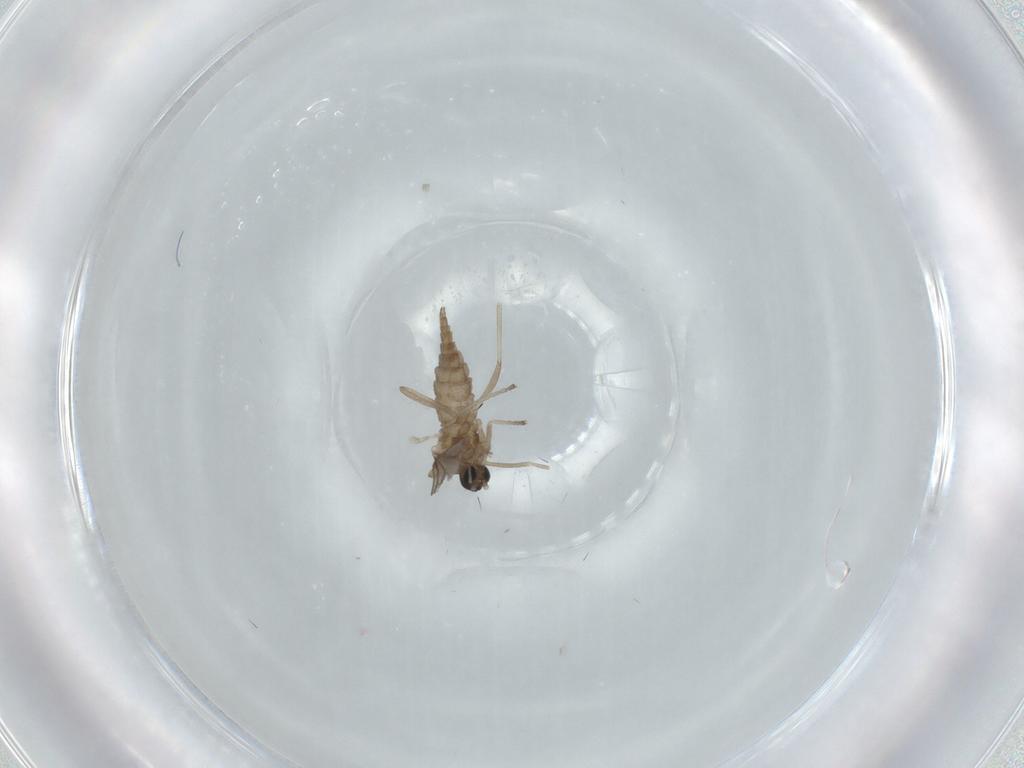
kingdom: Animalia
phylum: Arthropoda
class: Insecta
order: Diptera
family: Cecidomyiidae
